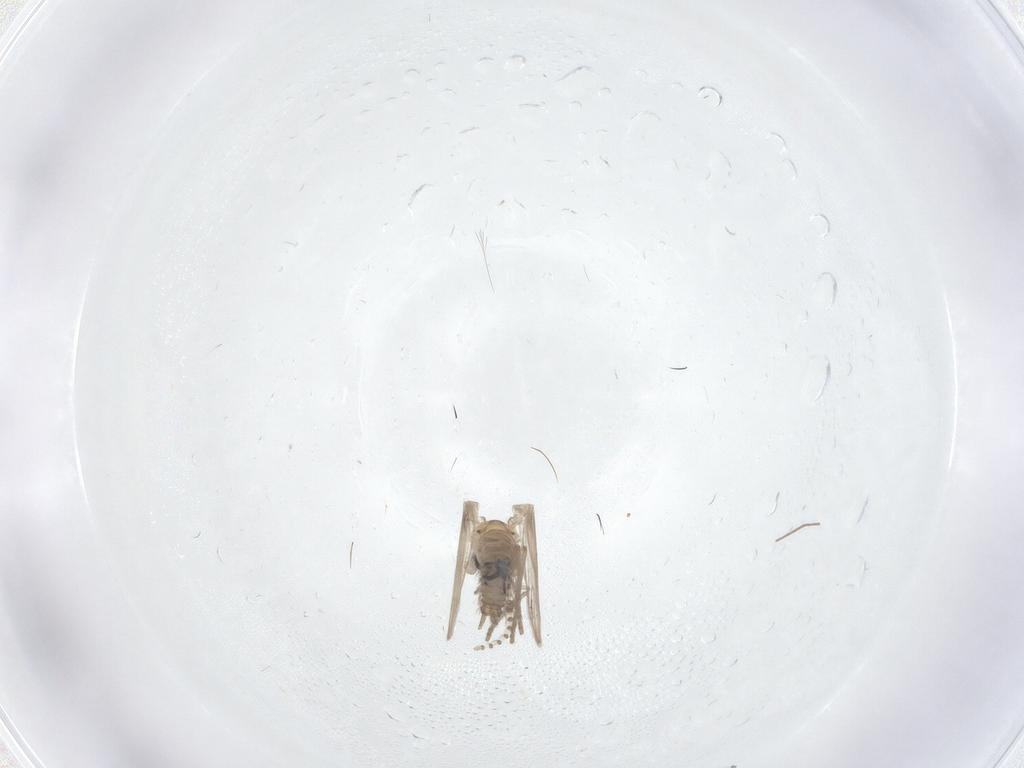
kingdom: Animalia
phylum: Arthropoda
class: Insecta
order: Diptera
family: Psychodidae
